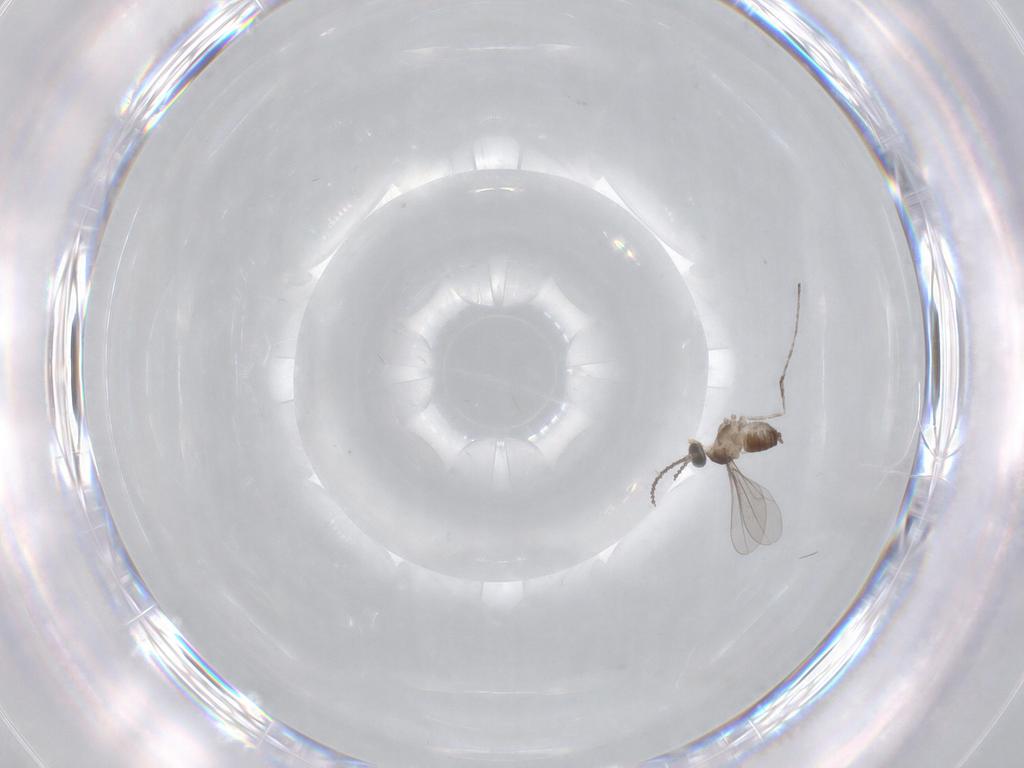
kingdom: Animalia
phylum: Arthropoda
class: Insecta
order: Diptera
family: Cecidomyiidae
